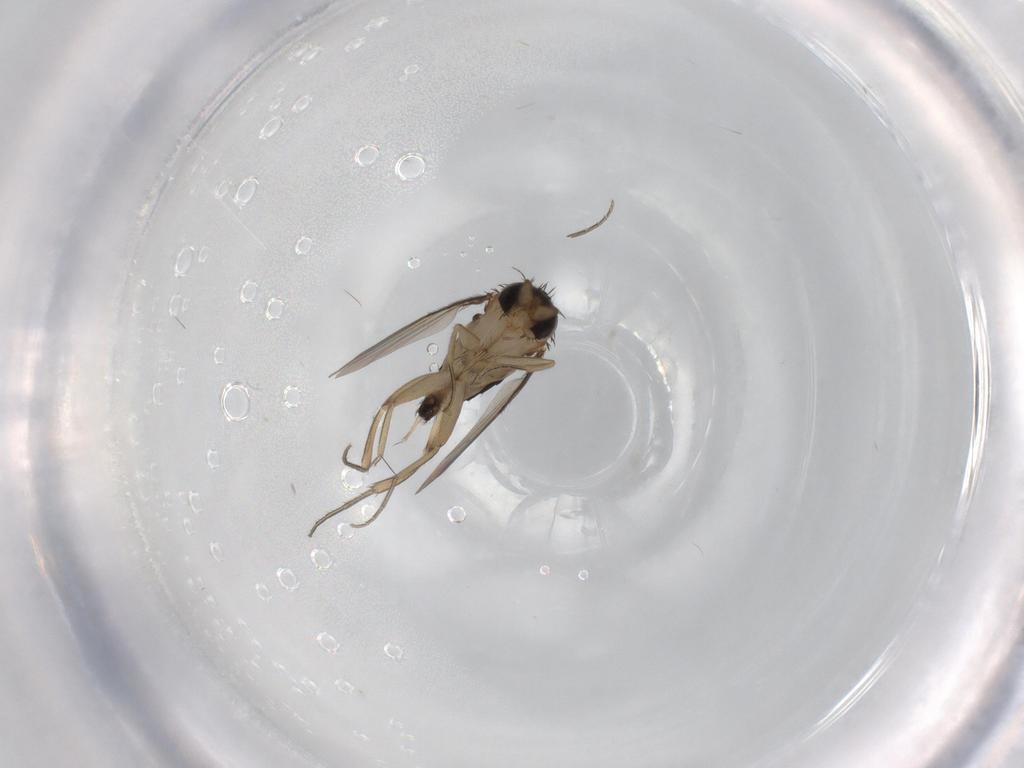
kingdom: Animalia
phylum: Arthropoda
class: Insecta
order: Diptera
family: Phoridae
